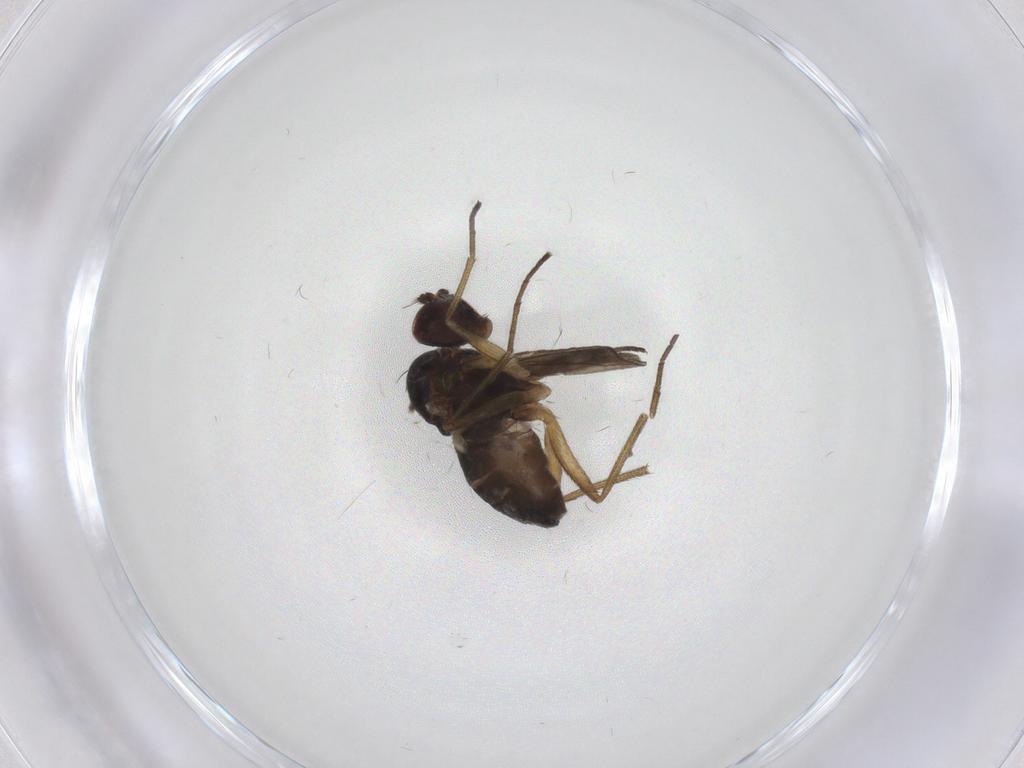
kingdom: Animalia
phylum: Arthropoda
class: Insecta
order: Diptera
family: Dolichopodidae
